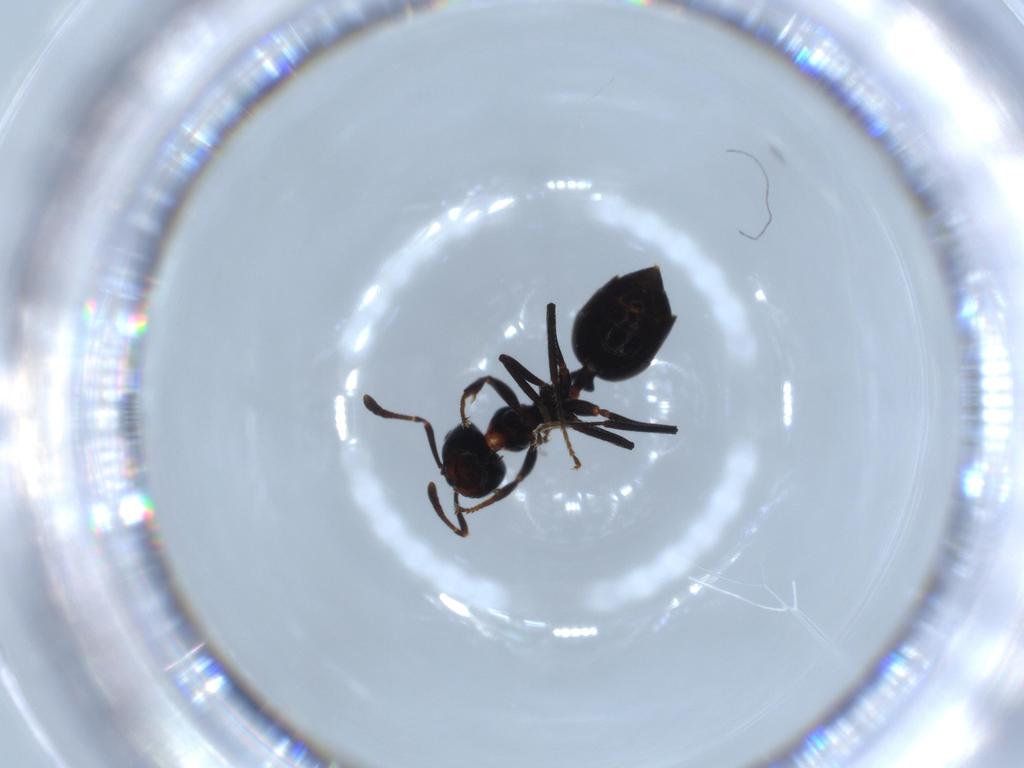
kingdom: Animalia
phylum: Arthropoda
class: Insecta
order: Hymenoptera
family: Formicidae
